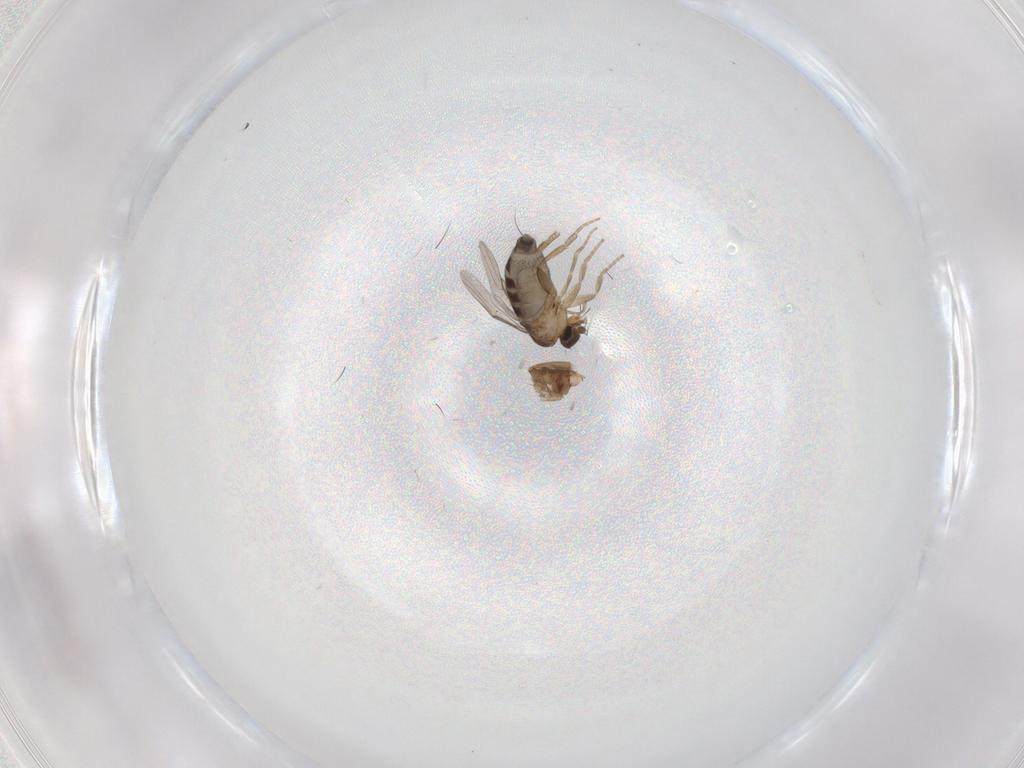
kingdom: Animalia
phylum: Arthropoda
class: Insecta
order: Diptera
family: Phoridae
